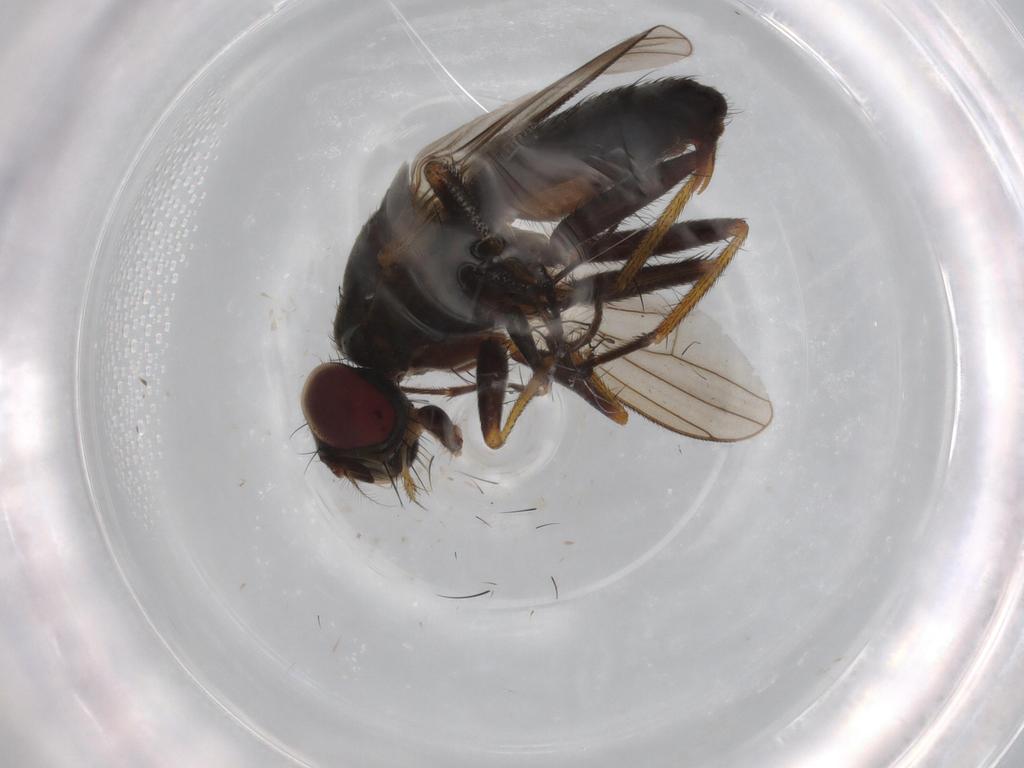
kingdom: Animalia
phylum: Arthropoda
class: Insecta
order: Diptera
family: Muscidae
